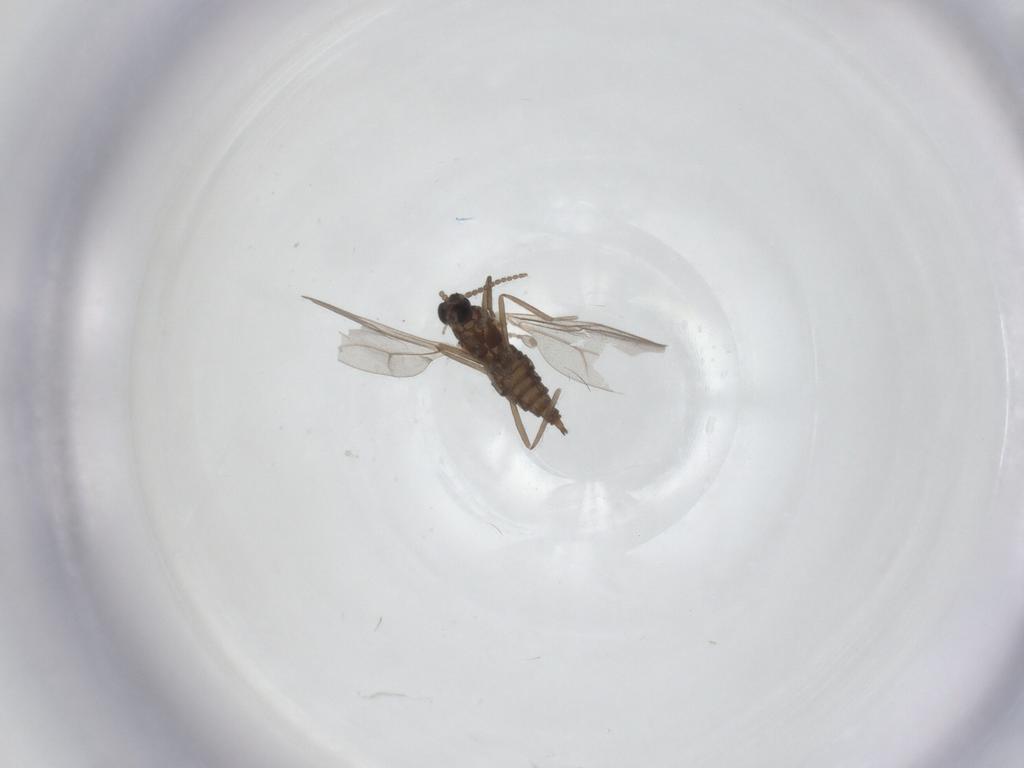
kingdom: Animalia
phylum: Arthropoda
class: Insecta
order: Diptera
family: Cecidomyiidae
